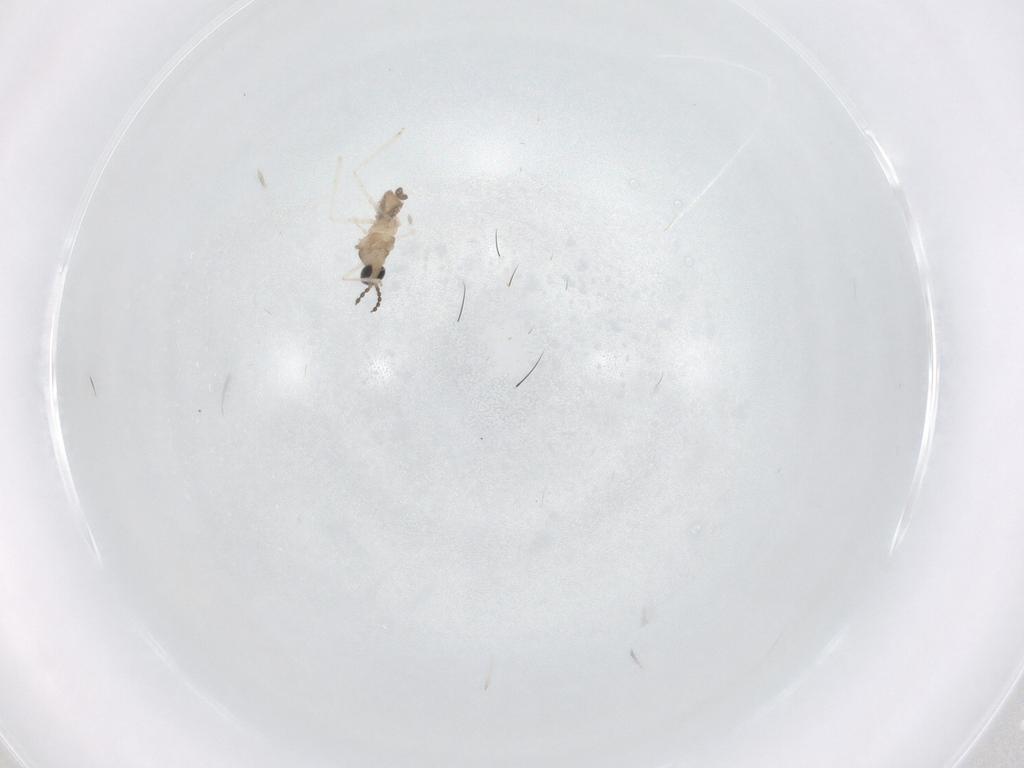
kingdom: Animalia
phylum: Arthropoda
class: Insecta
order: Diptera
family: Cecidomyiidae
